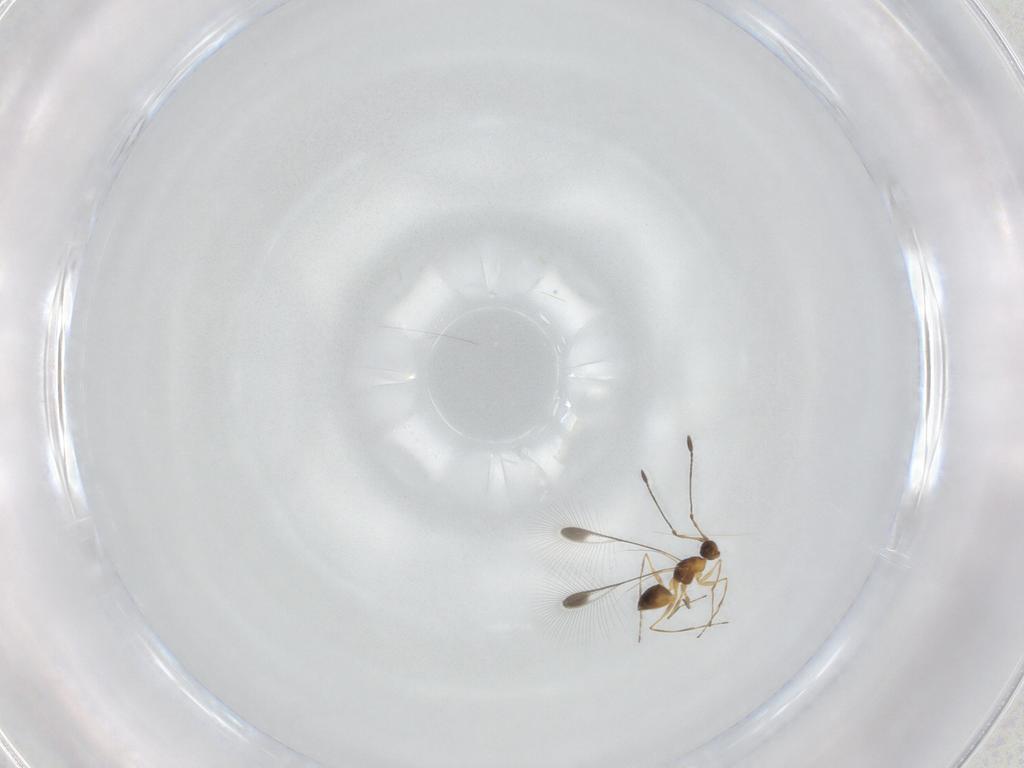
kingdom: Animalia
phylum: Arthropoda
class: Insecta
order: Hymenoptera
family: Mymaridae
